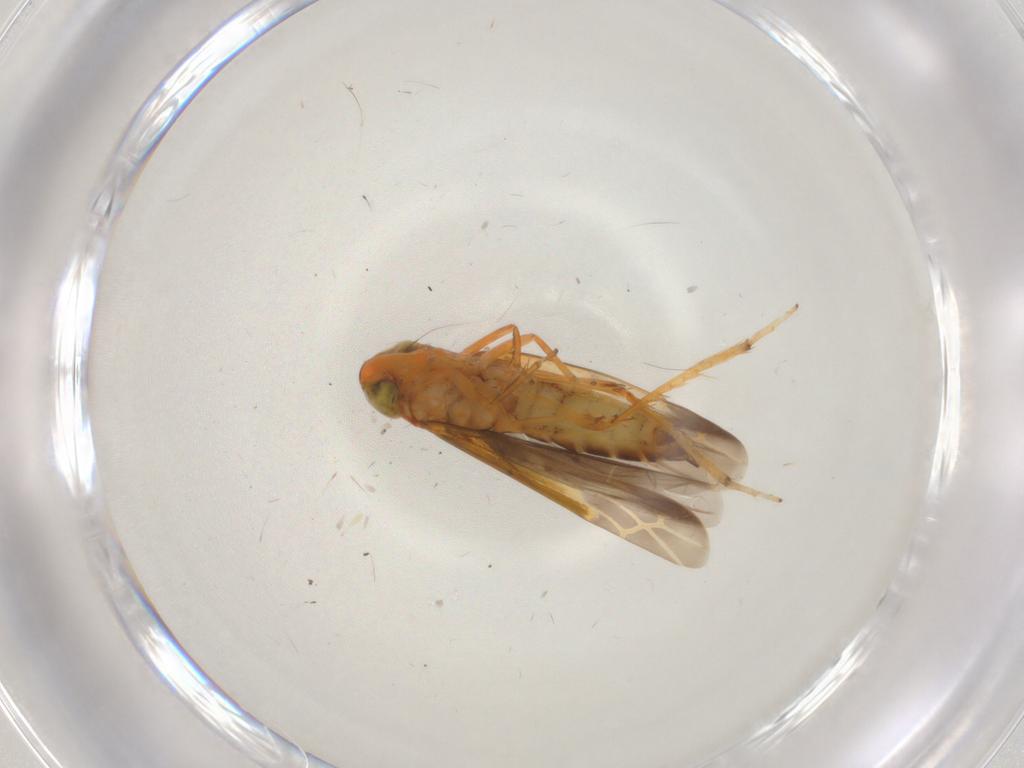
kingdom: Animalia
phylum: Arthropoda
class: Insecta
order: Hemiptera
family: Cicadellidae
